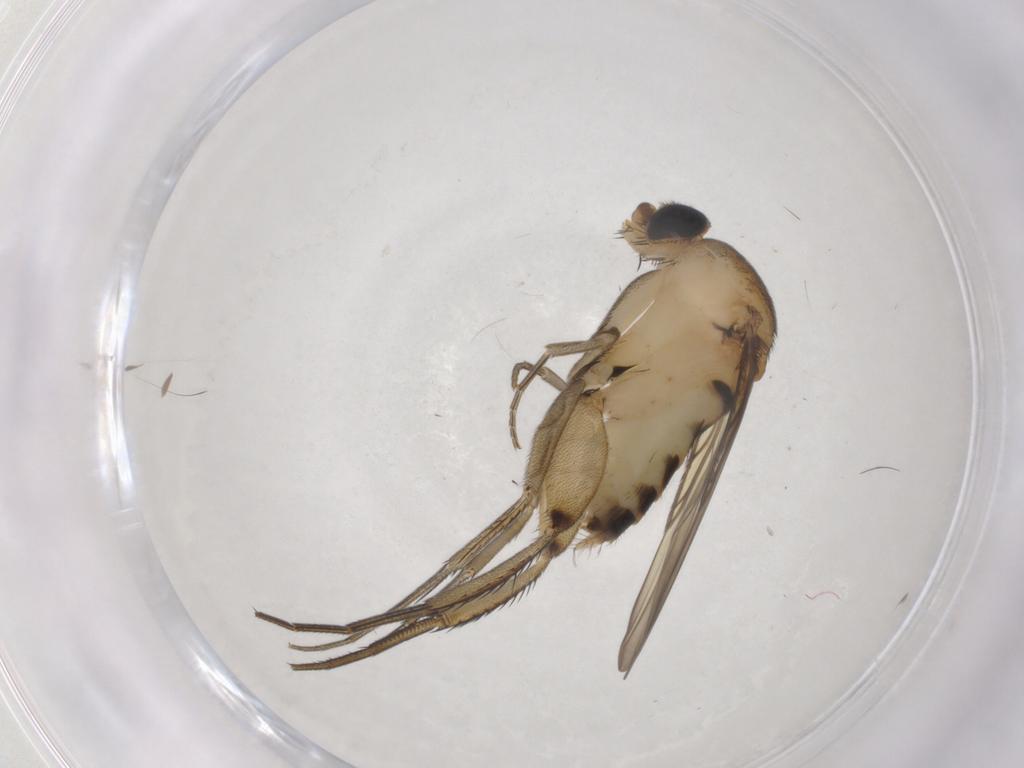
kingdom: Animalia
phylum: Arthropoda
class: Insecta
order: Diptera
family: Phoridae
